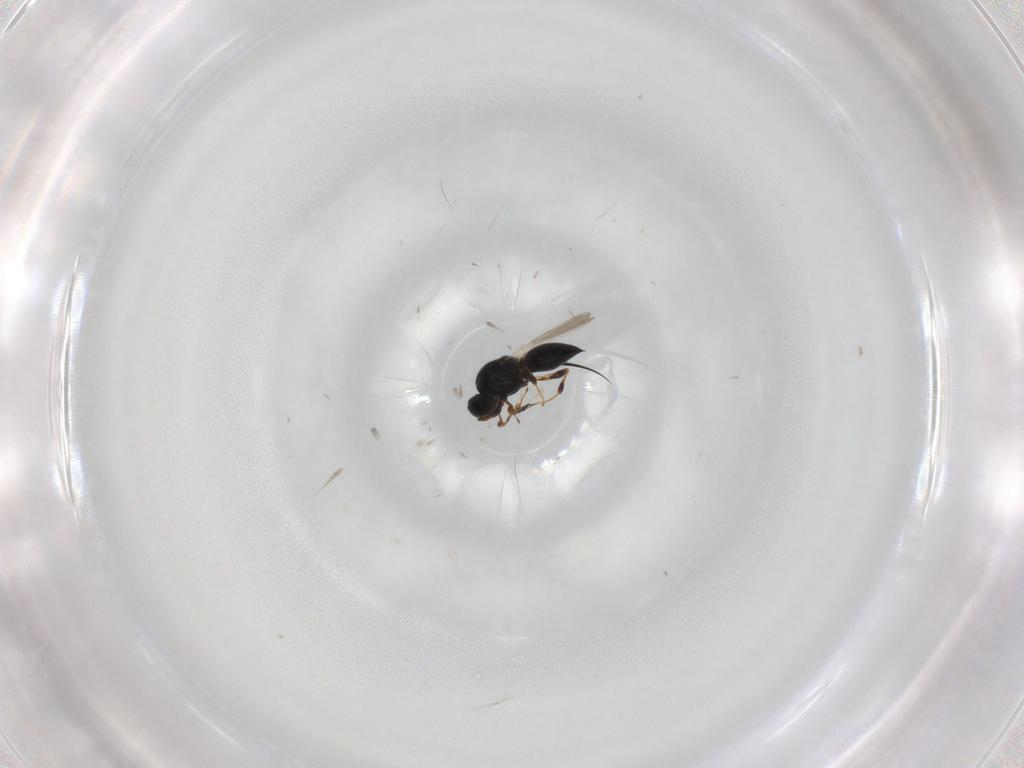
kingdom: Animalia
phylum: Arthropoda
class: Insecta
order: Hymenoptera
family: Platygastridae
